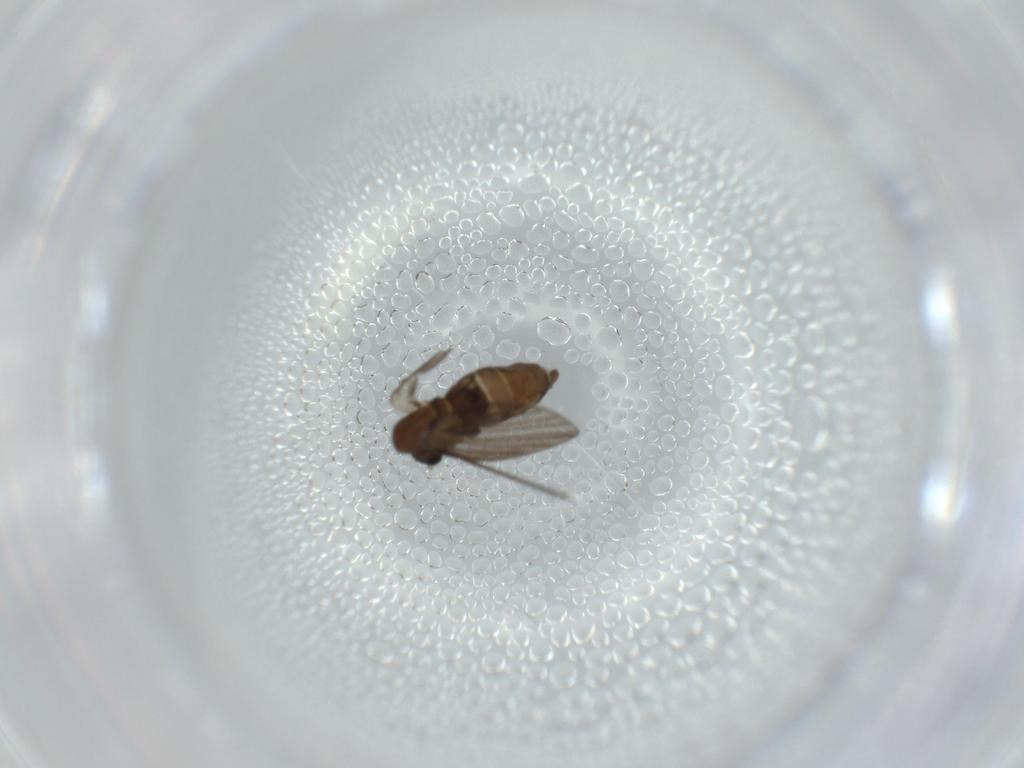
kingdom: Animalia
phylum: Arthropoda
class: Insecta
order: Diptera
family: Psychodidae
